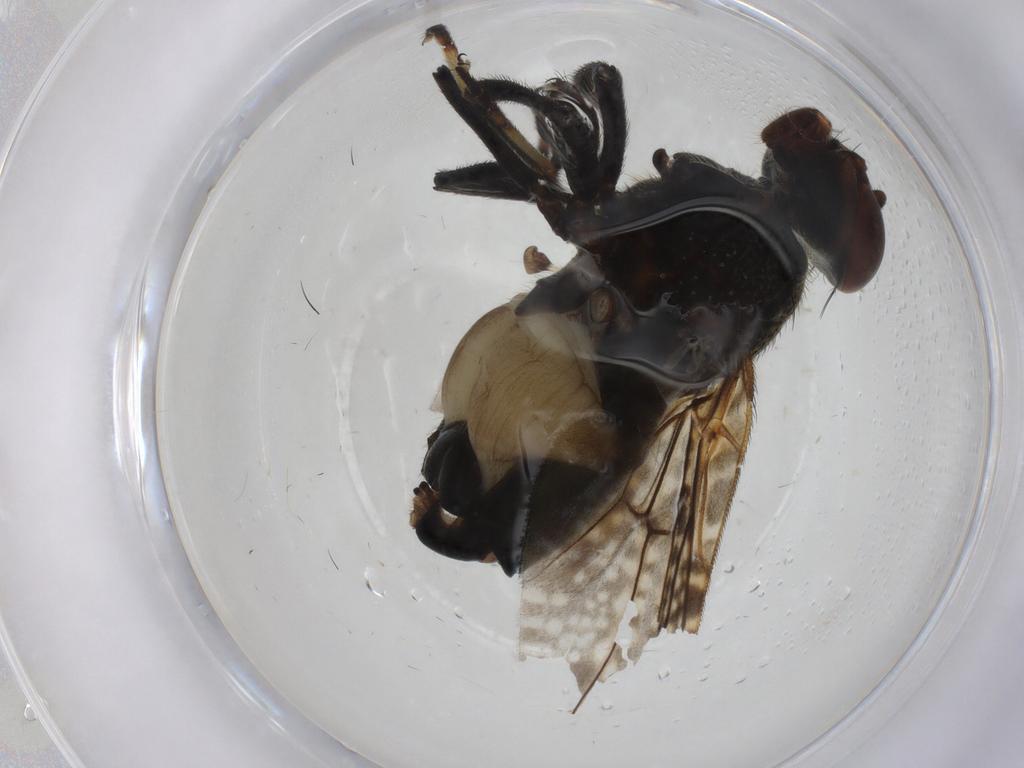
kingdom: Animalia
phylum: Arthropoda
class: Insecta
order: Diptera
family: Platystomatidae
